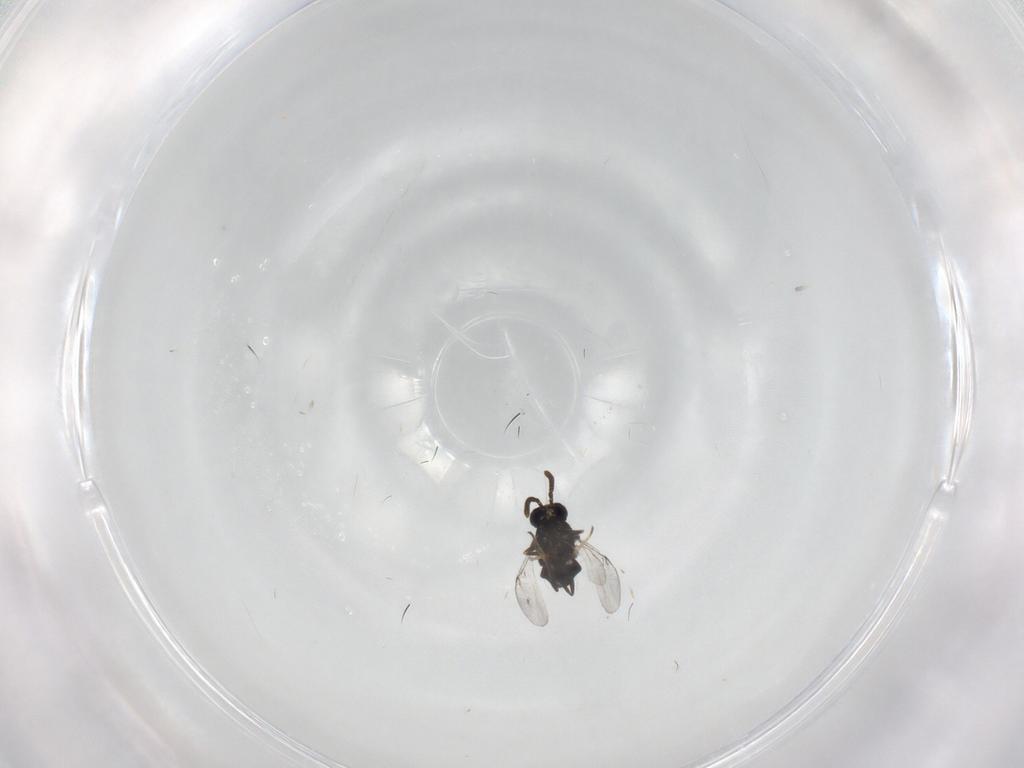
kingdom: Animalia
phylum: Arthropoda
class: Insecta
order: Hymenoptera
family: Encyrtidae
